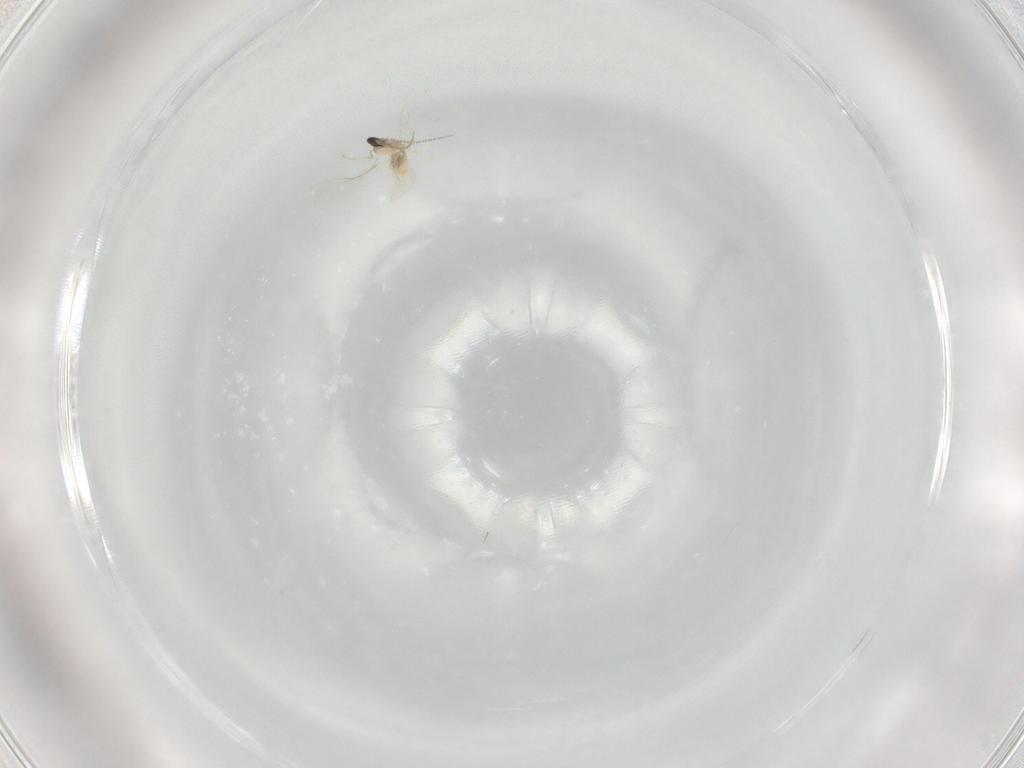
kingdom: Animalia
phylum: Arthropoda
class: Insecta
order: Diptera
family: Cecidomyiidae
